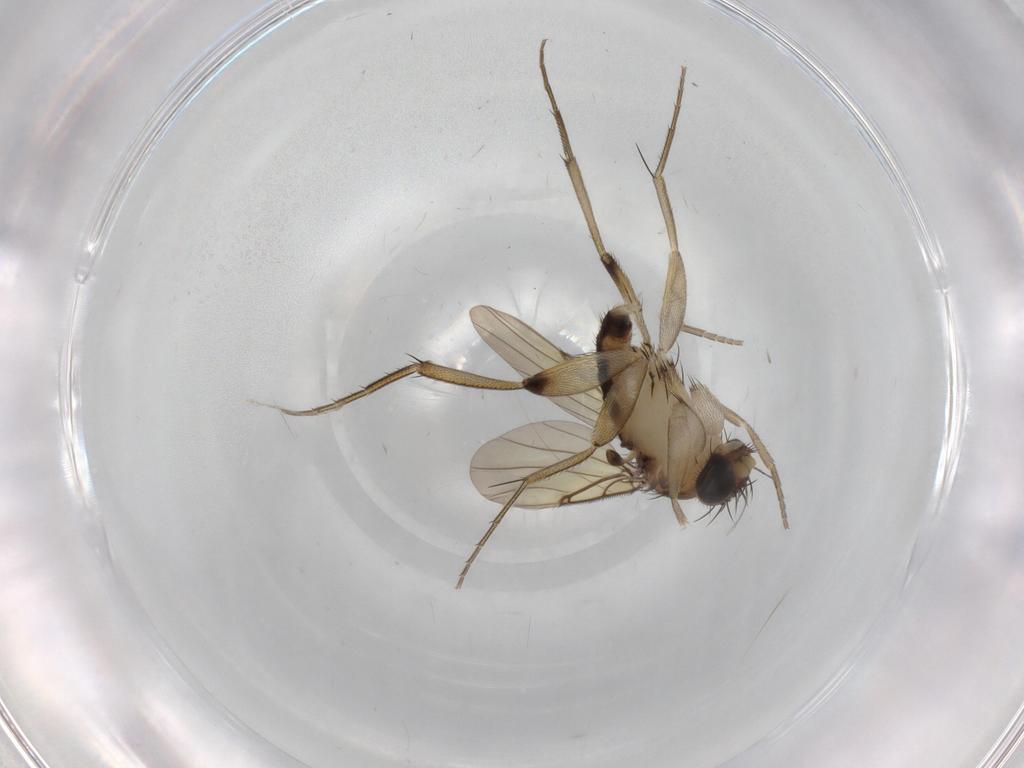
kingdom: Animalia
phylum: Arthropoda
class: Insecta
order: Diptera
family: Phoridae
